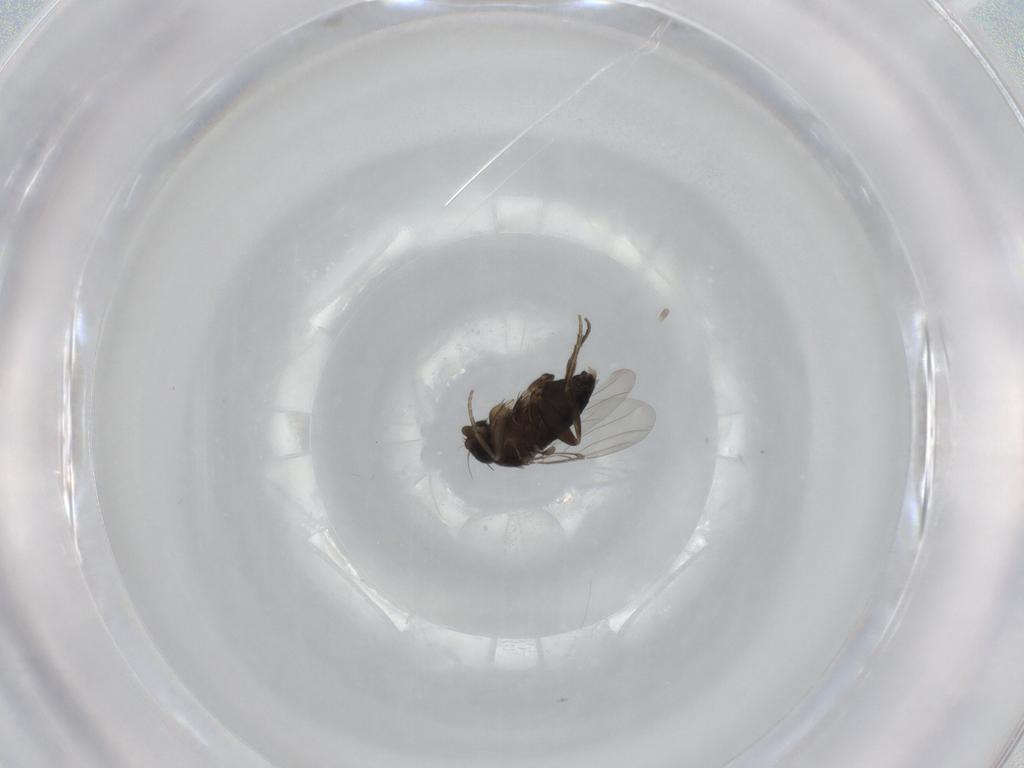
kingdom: Animalia
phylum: Arthropoda
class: Insecta
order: Diptera
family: Phoridae
